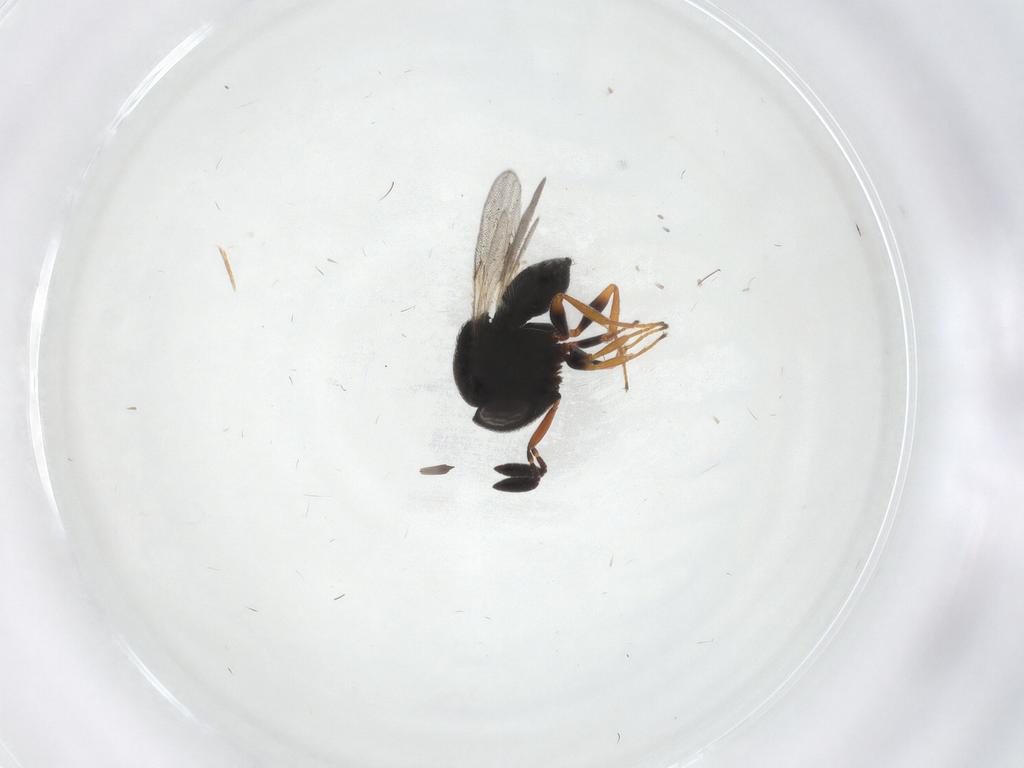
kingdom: Animalia
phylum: Arthropoda
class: Insecta
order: Hymenoptera
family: Scelionidae
